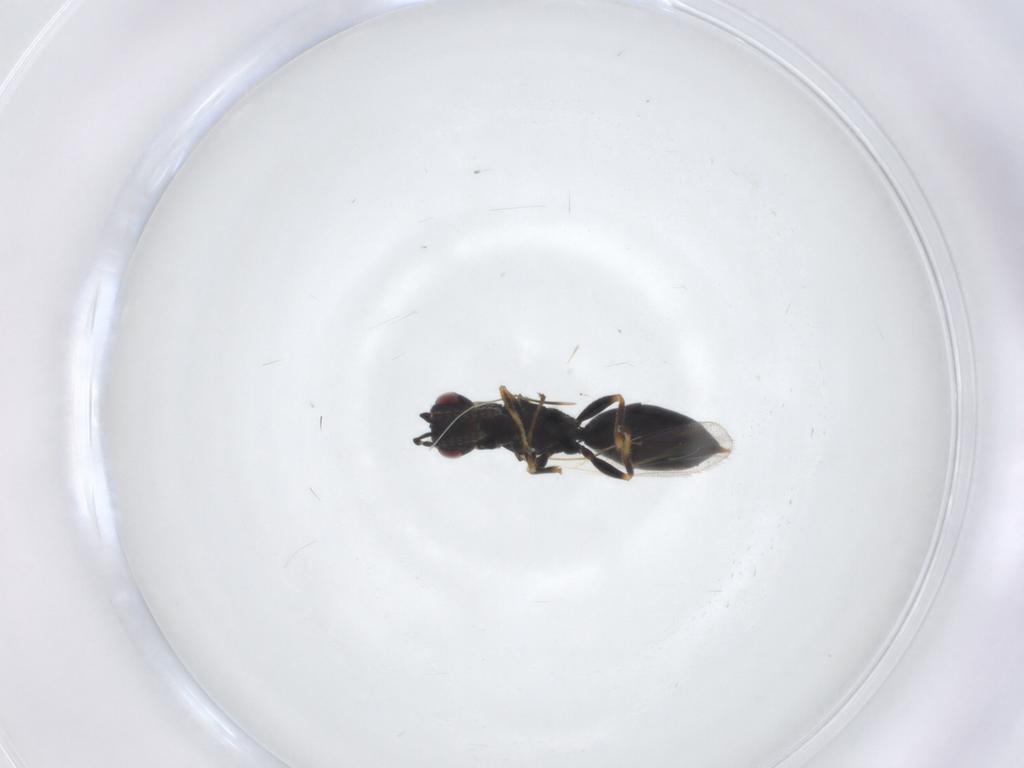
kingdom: Animalia
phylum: Arthropoda
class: Insecta
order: Hymenoptera
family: Eurytomidae
